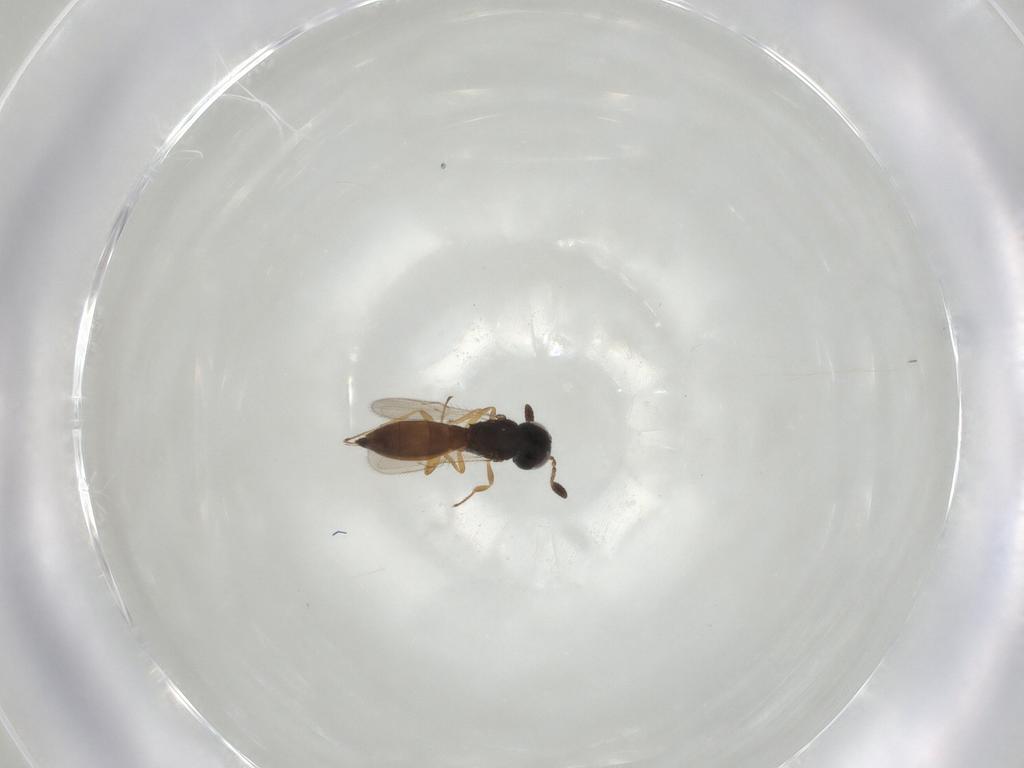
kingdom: Animalia
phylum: Arthropoda
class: Insecta
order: Hymenoptera
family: Scelionidae
